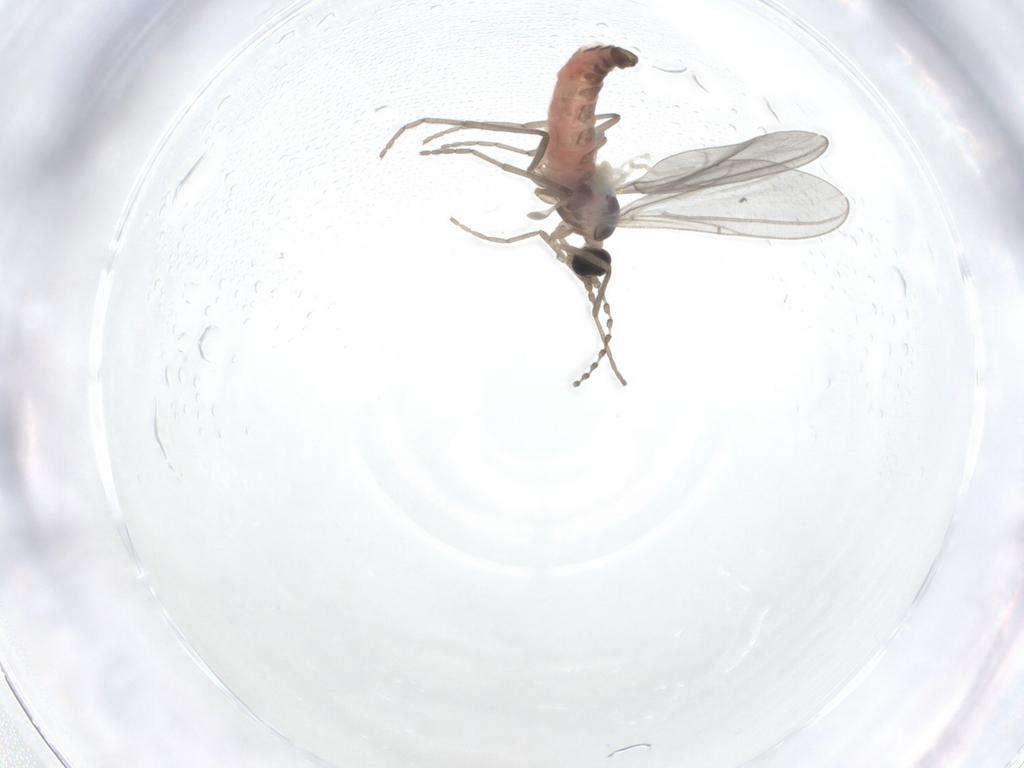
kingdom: Animalia
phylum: Arthropoda
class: Insecta
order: Diptera
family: Cecidomyiidae
